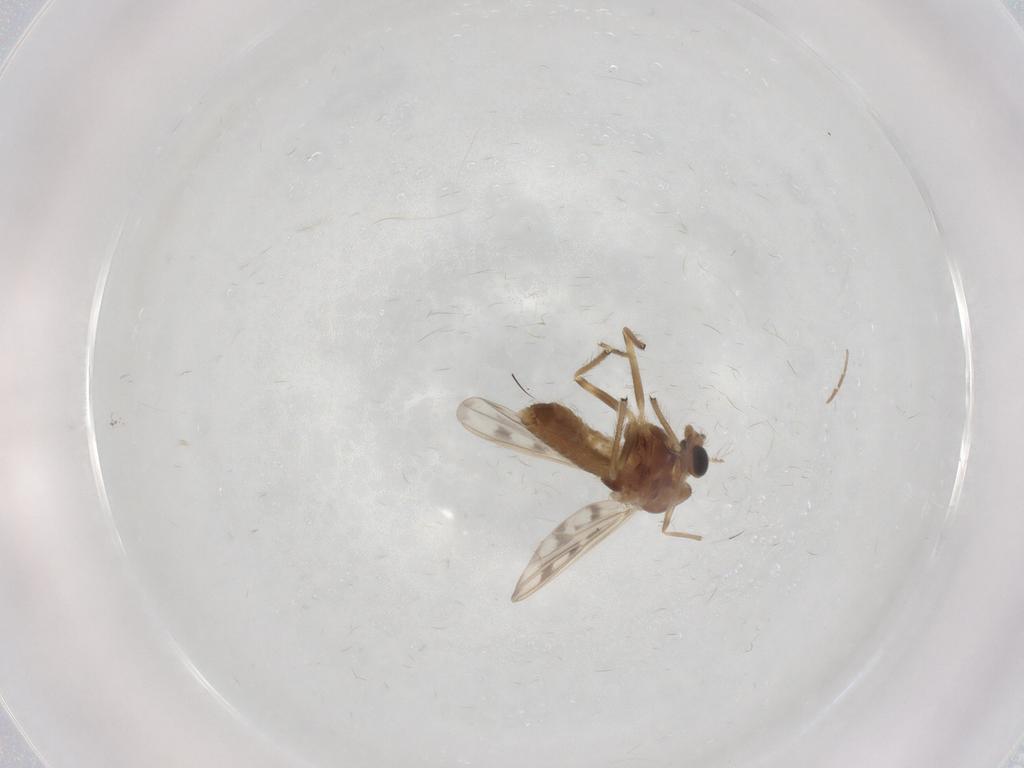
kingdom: Animalia
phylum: Arthropoda
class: Insecta
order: Diptera
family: Chironomidae
